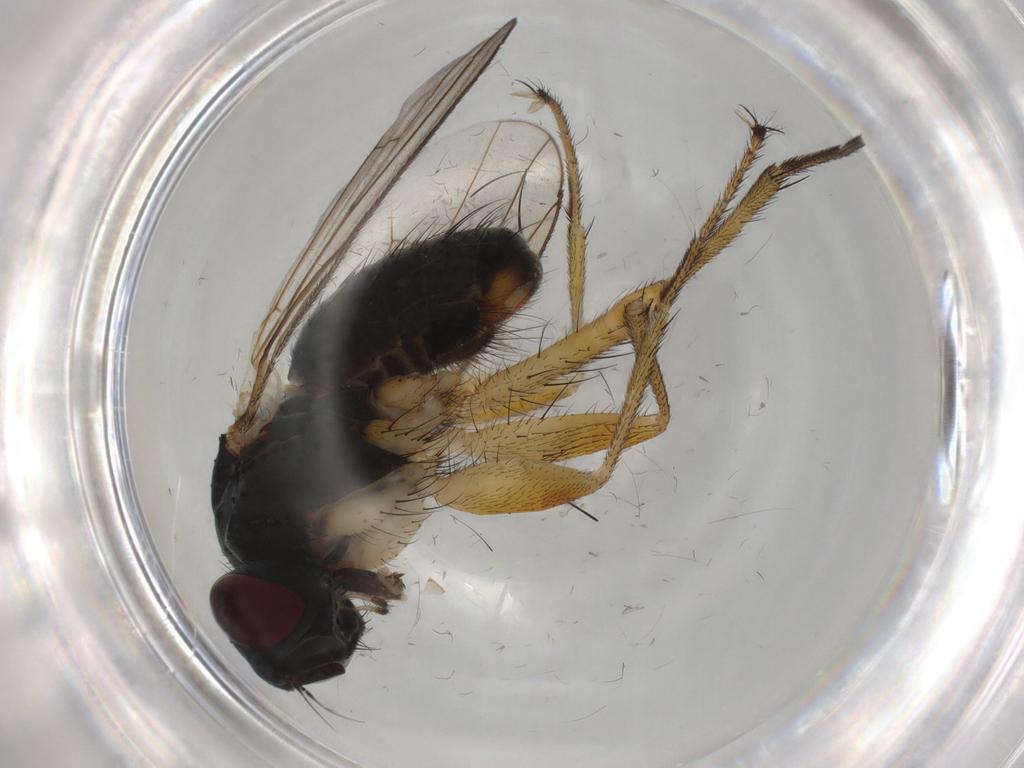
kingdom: Animalia
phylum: Arthropoda
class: Insecta
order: Diptera
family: Muscidae
